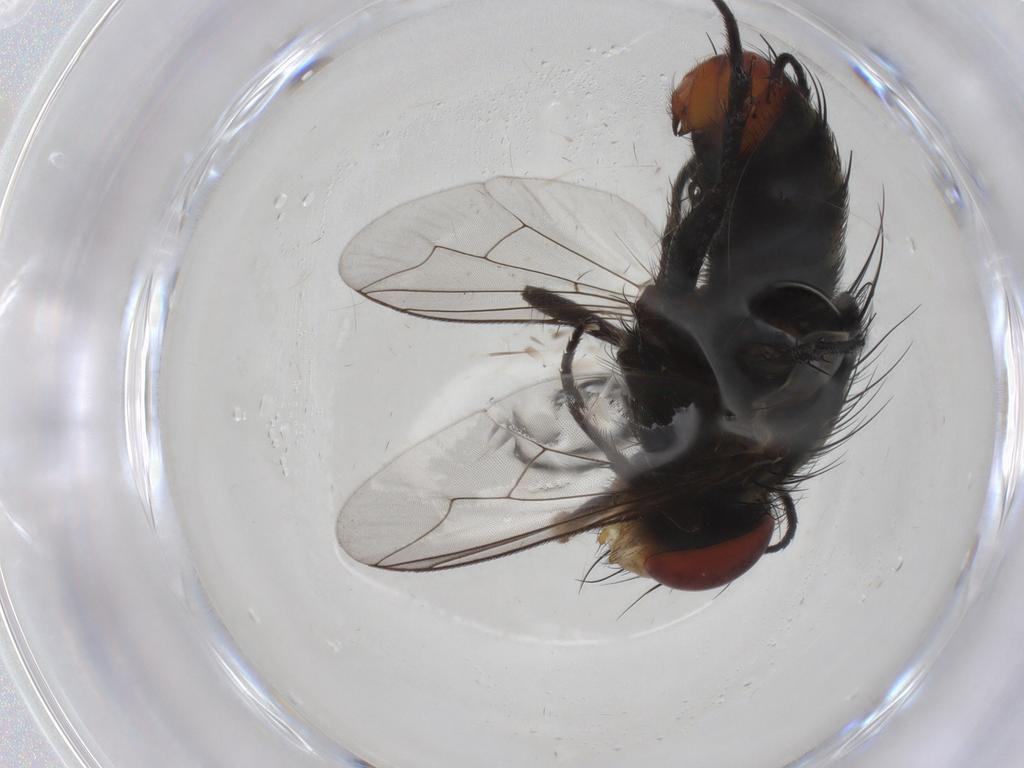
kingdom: Animalia
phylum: Arthropoda
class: Insecta
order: Diptera
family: Sarcophagidae
